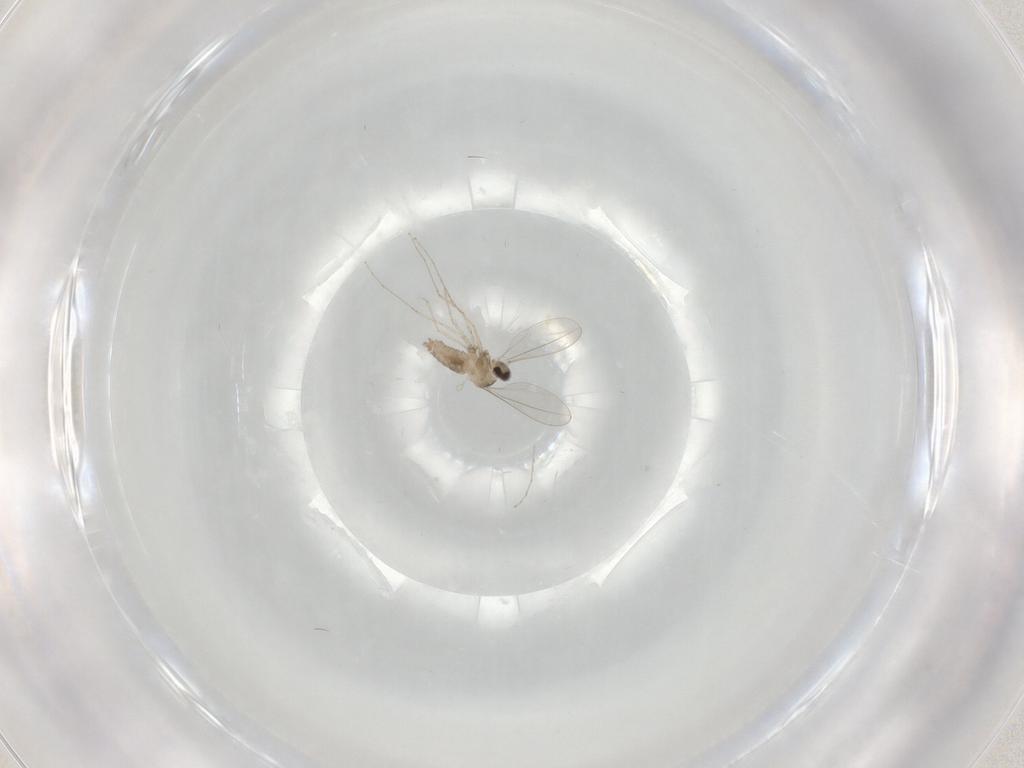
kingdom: Animalia
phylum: Arthropoda
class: Insecta
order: Diptera
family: Cecidomyiidae
